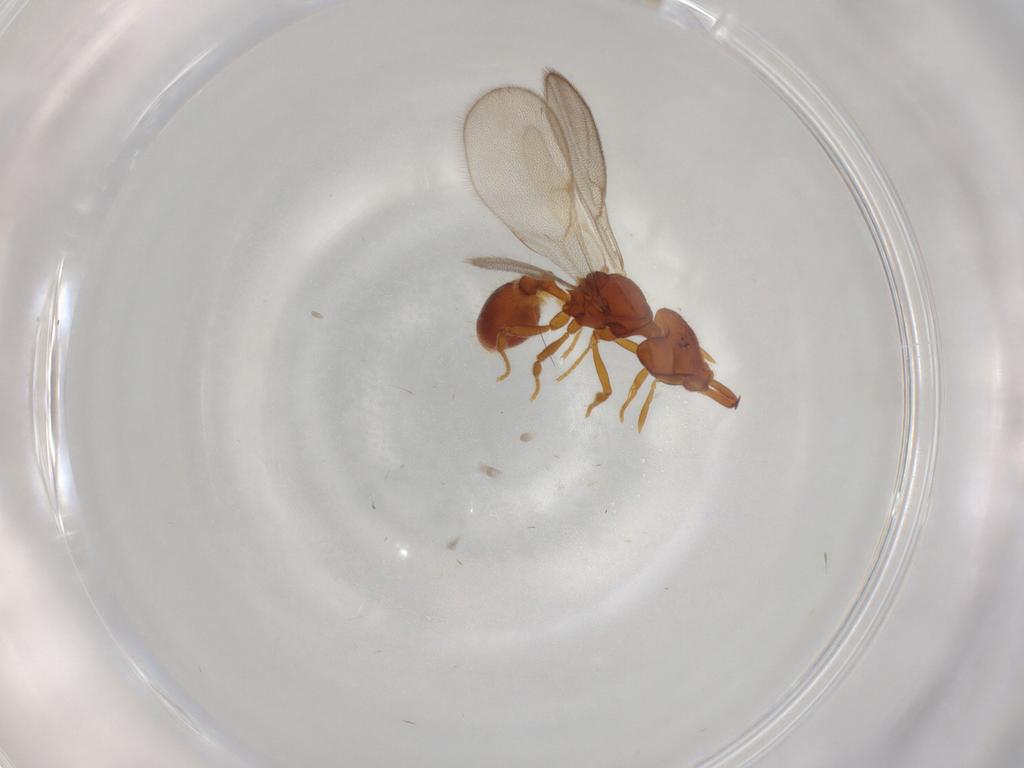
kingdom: Animalia
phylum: Arthropoda
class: Insecta
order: Hymenoptera
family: Formicidae
